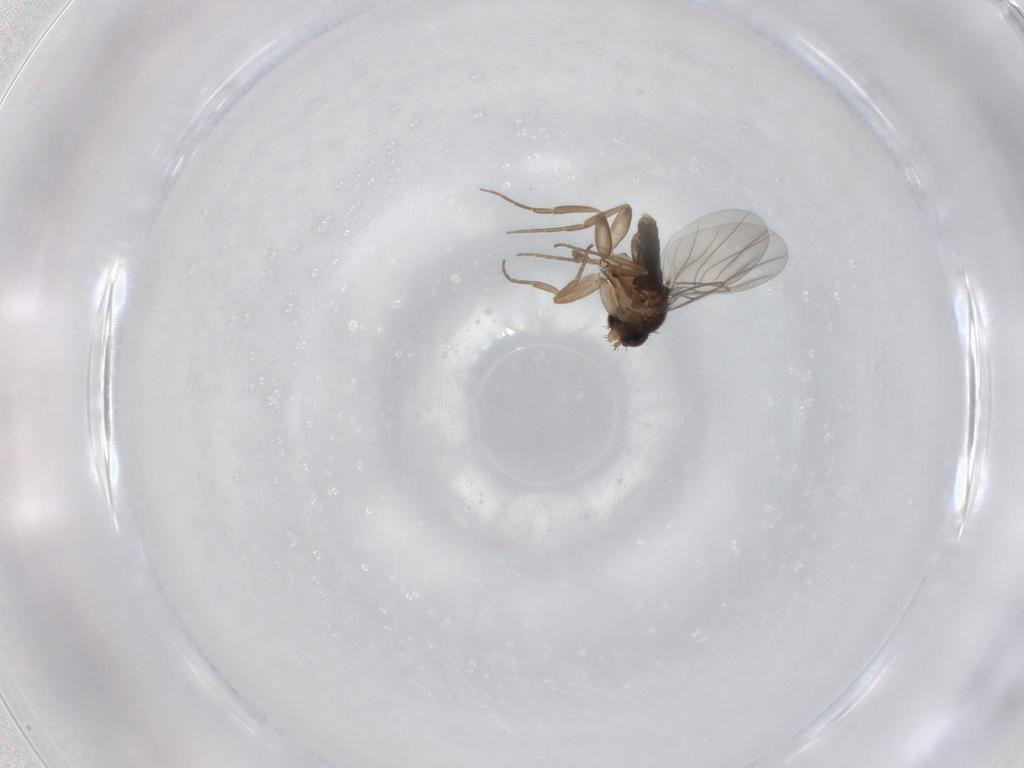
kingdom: Animalia
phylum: Arthropoda
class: Insecta
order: Diptera
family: Phoridae
